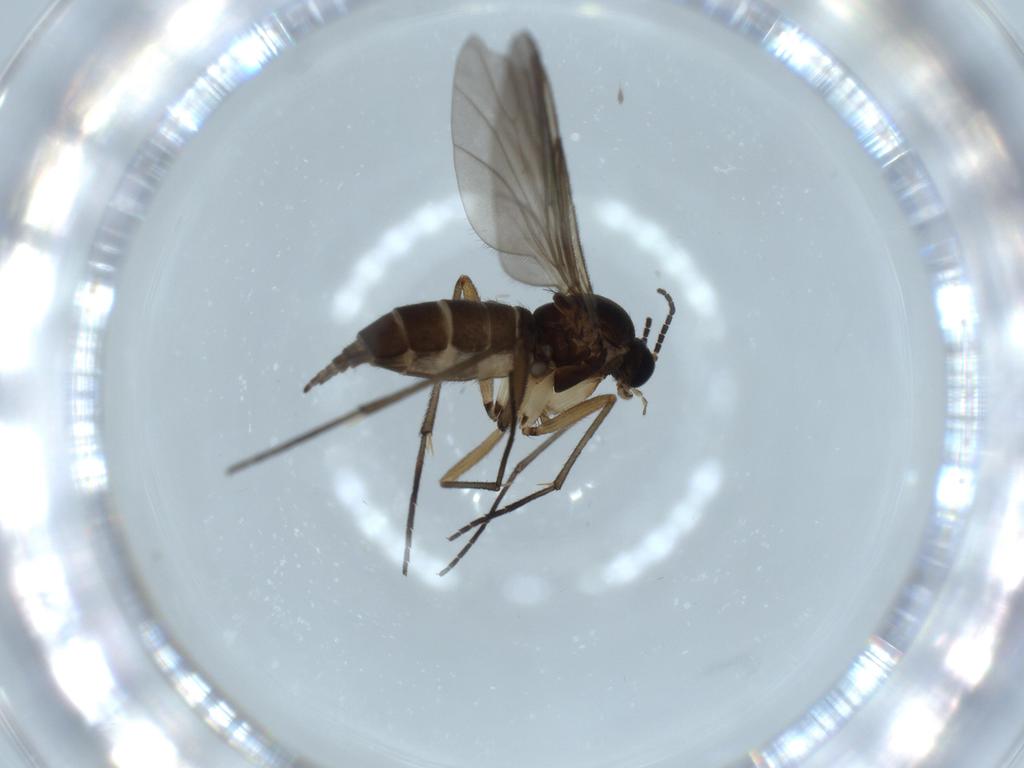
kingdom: Animalia
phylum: Arthropoda
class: Insecta
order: Diptera
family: Sciaridae
